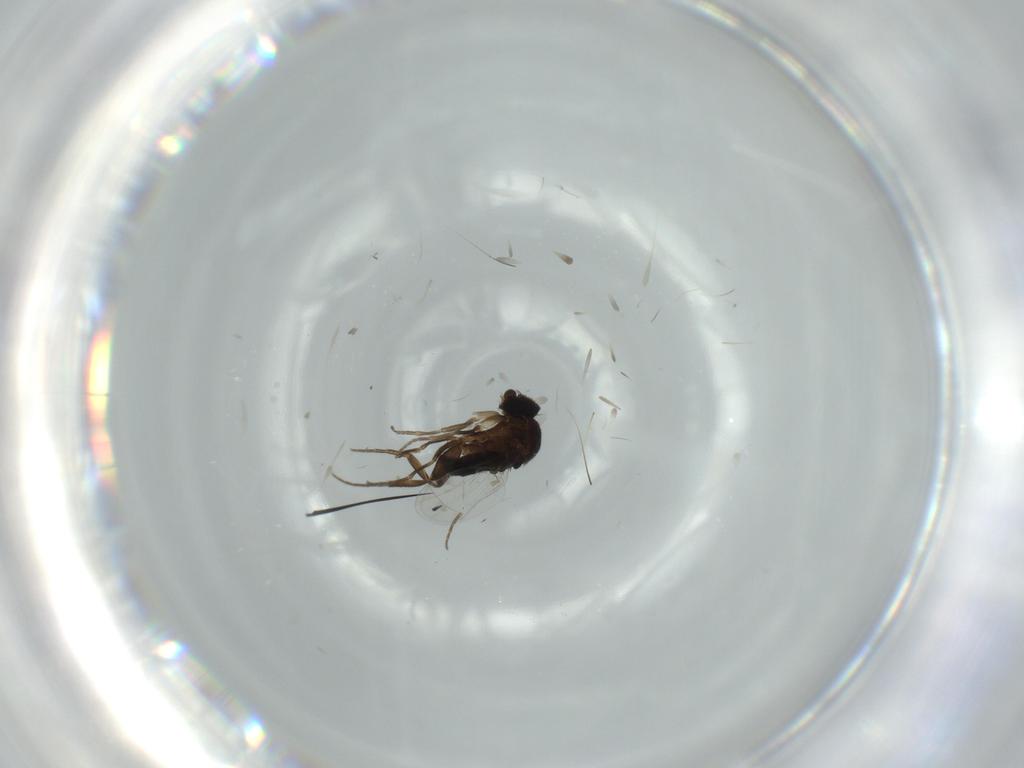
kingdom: Animalia
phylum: Arthropoda
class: Insecta
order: Diptera
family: Phoridae
